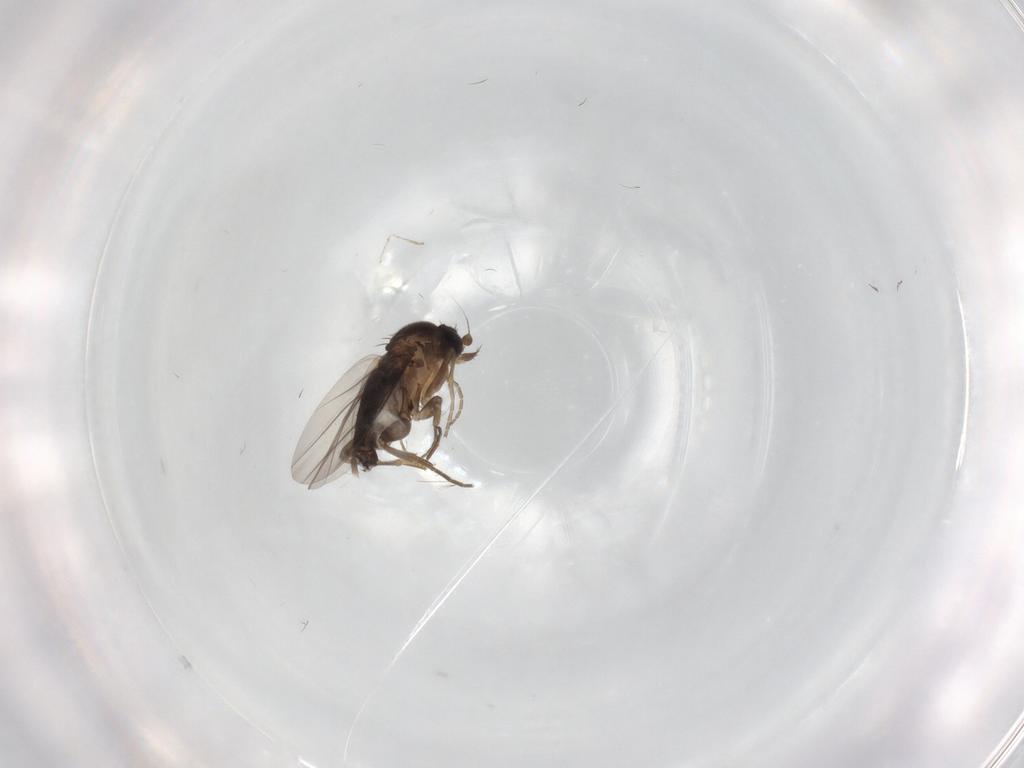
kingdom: Animalia
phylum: Arthropoda
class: Insecta
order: Diptera
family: Phoridae
